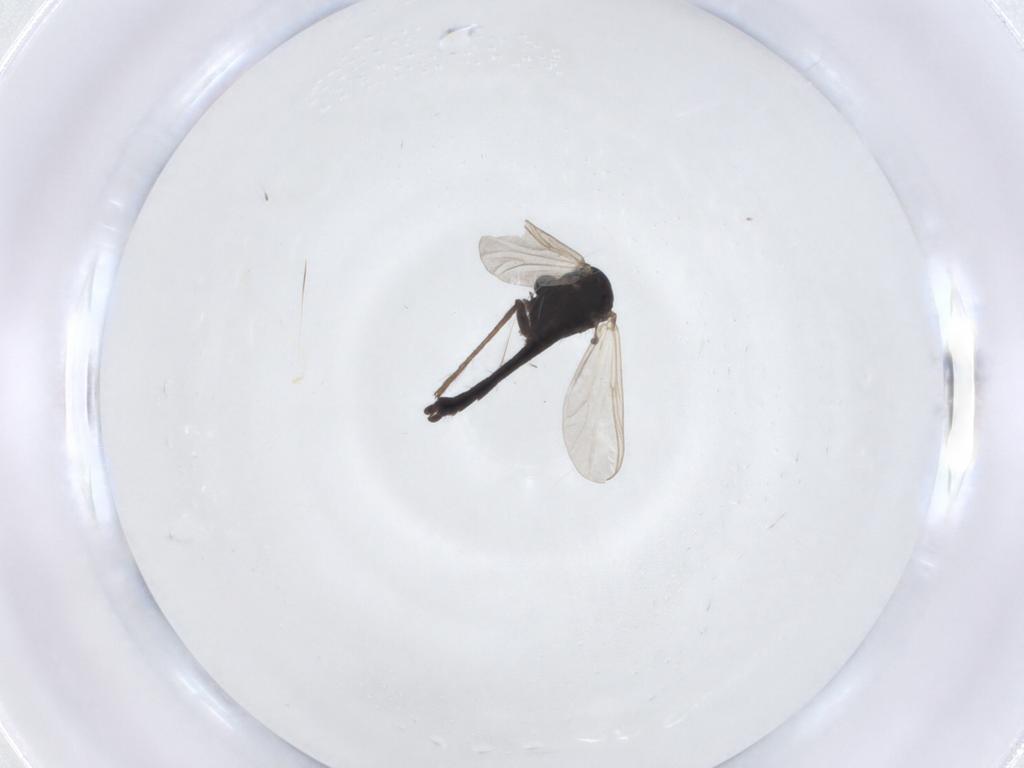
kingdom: Animalia
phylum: Arthropoda
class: Insecta
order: Diptera
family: Chironomidae
